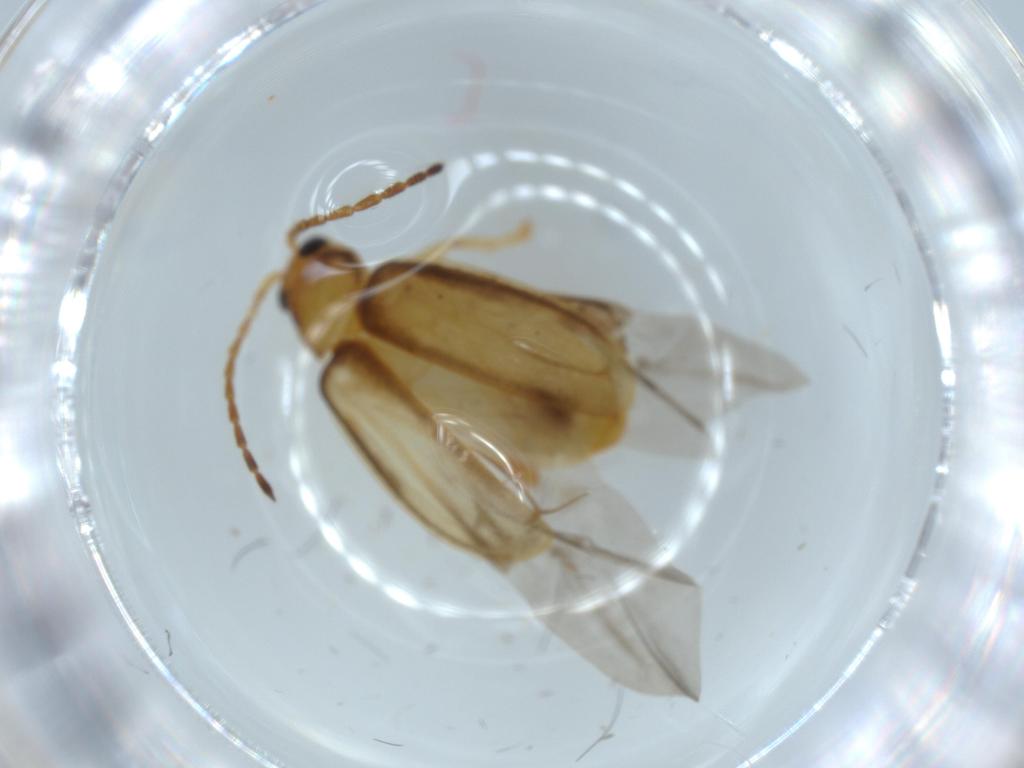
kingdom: Animalia
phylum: Arthropoda
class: Insecta
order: Coleoptera
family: Chrysomelidae
